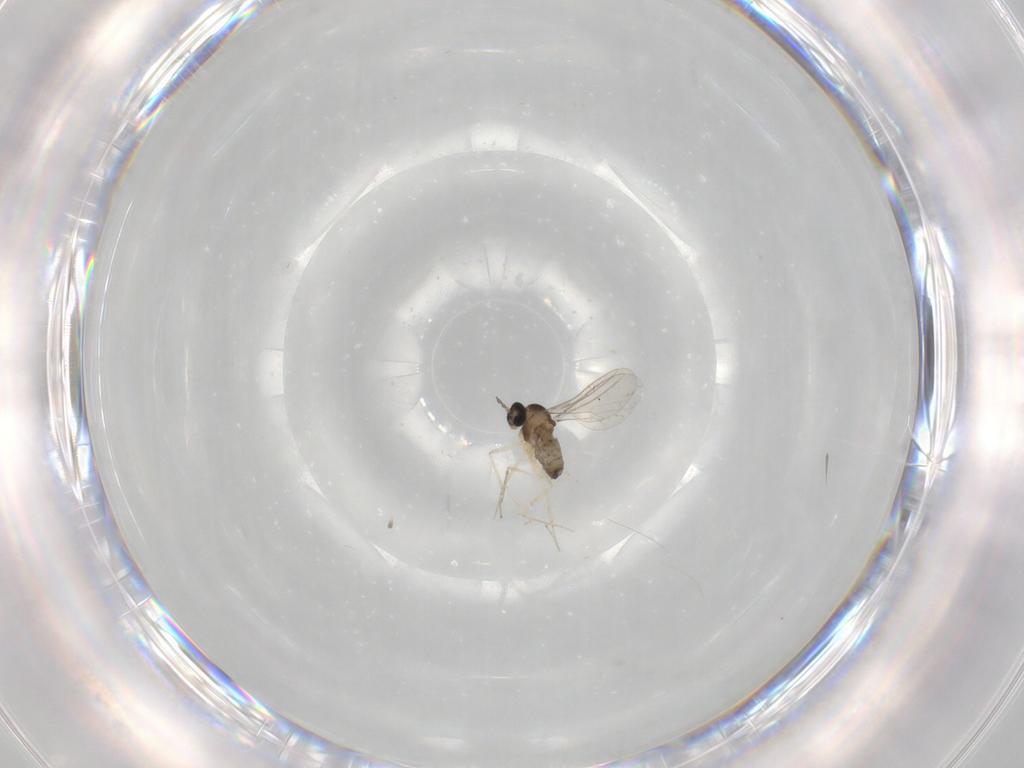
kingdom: Animalia
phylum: Arthropoda
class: Insecta
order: Diptera
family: Cecidomyiidae
